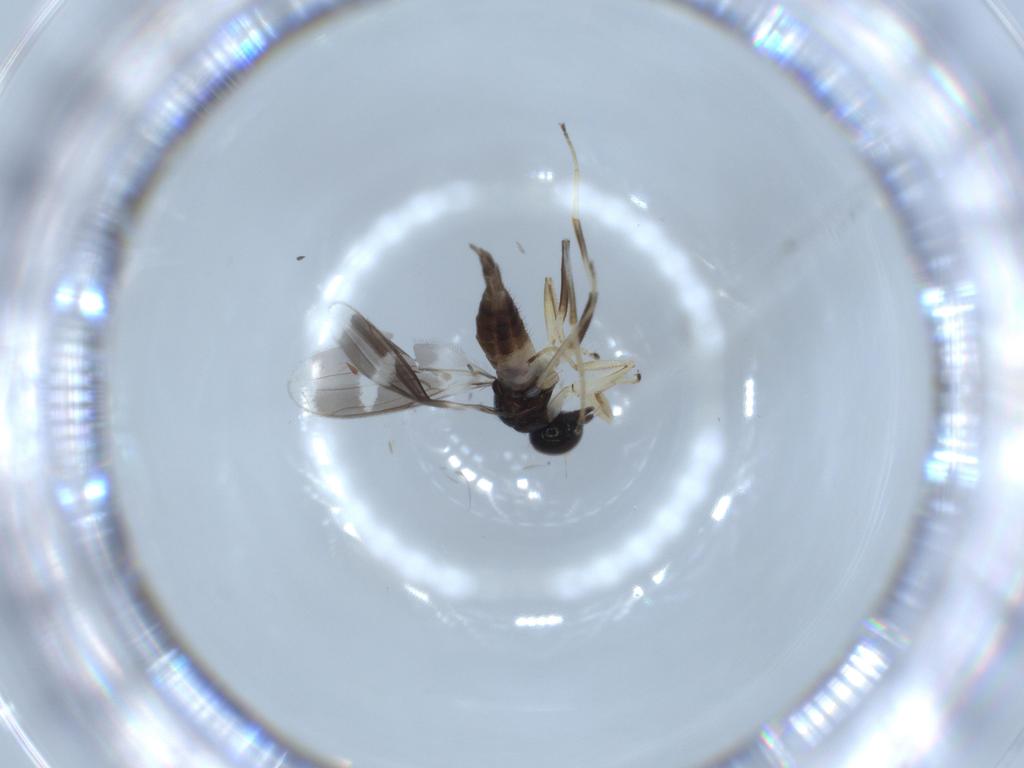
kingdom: Animalia
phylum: Arthropoda
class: Insecta
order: Diptera
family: Hybotidae
